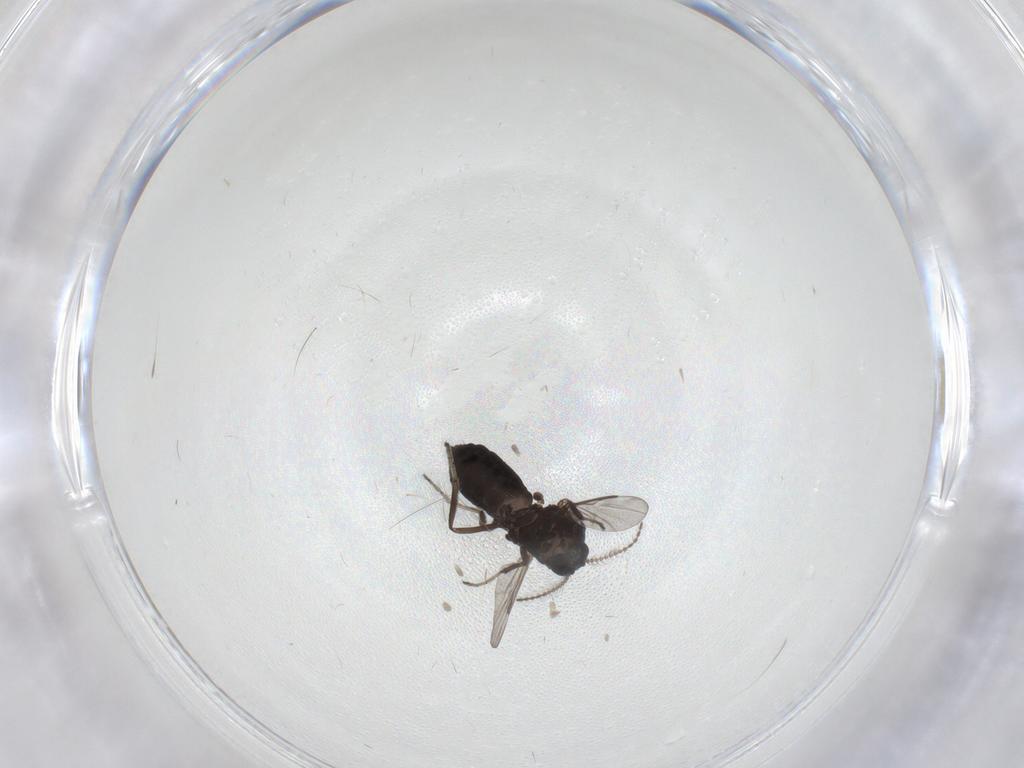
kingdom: Animalia
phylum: Arthropoda
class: Insecta
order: Diptera
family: Ceratopogonidae
